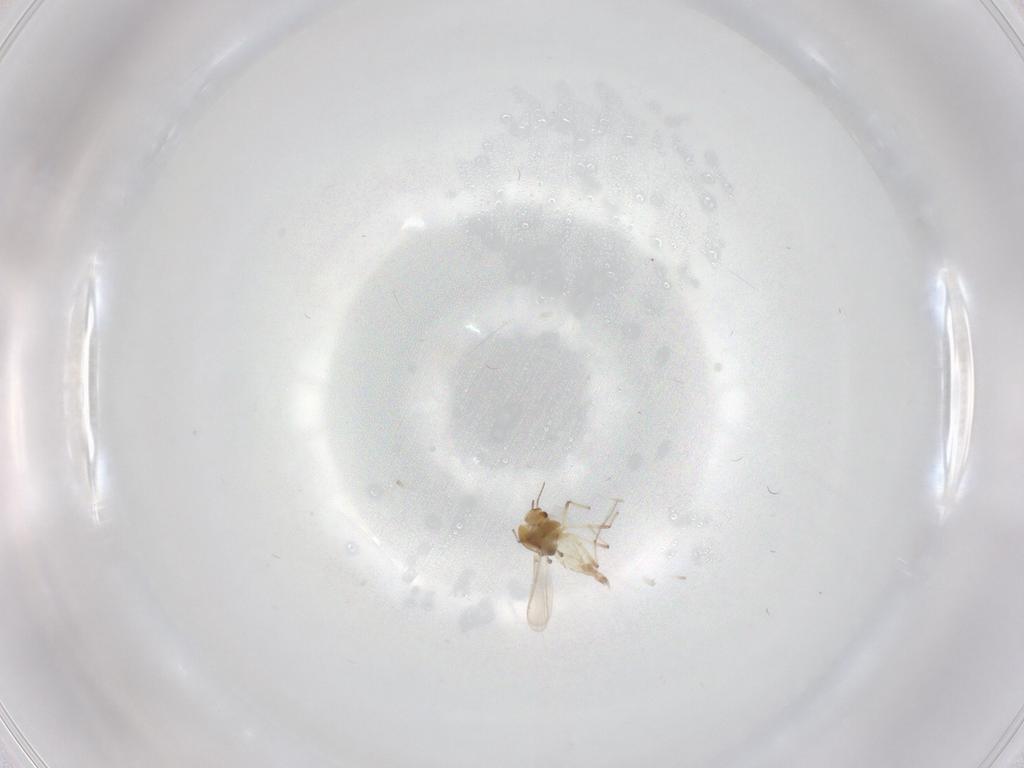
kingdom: Animalia
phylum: Arthropoda
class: Insecta
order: Diptera
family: Chironomidae
